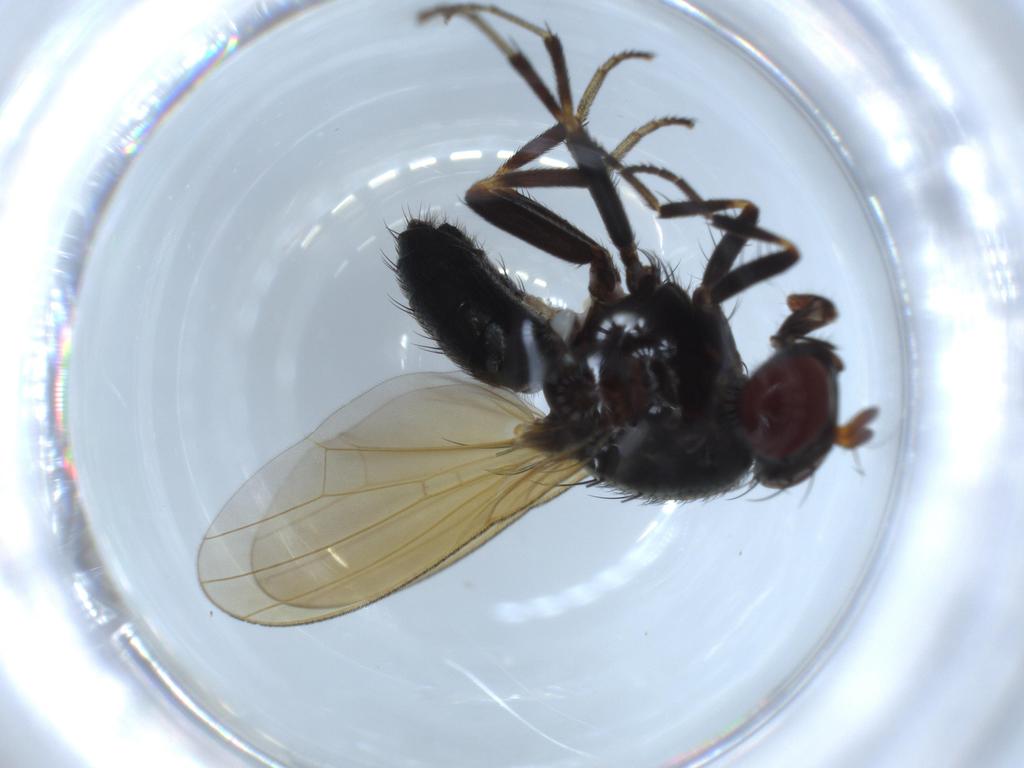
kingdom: Animalia
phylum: Arthropoda
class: Insecta
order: Diptera
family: Lauxaniidae
